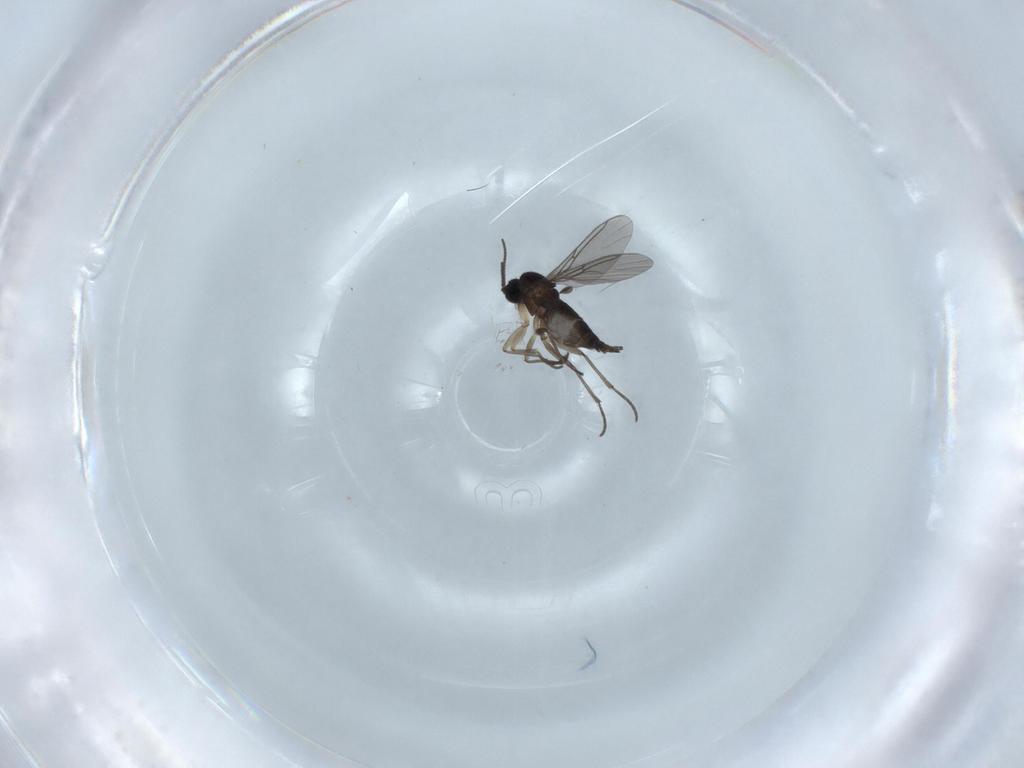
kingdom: Animalia
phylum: Arthropoda
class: Insecta
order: Diptera
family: Sciaridae
